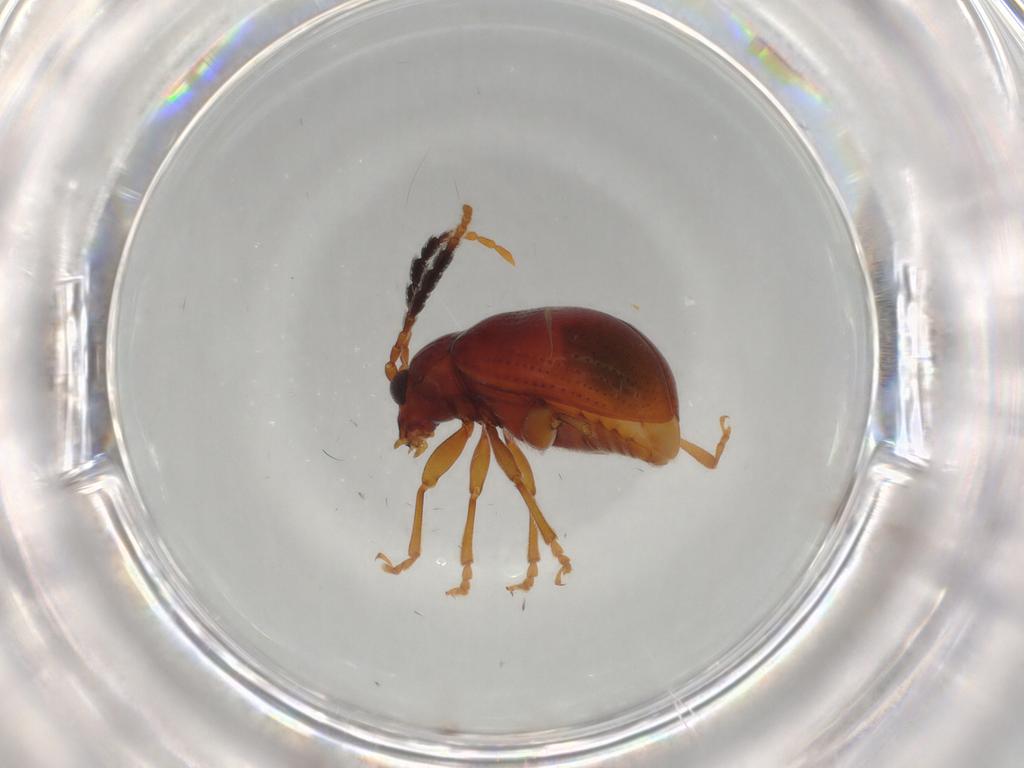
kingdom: Animalia
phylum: Arthropoda
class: Insecta
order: Coleoptera
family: Chrysomelidae
